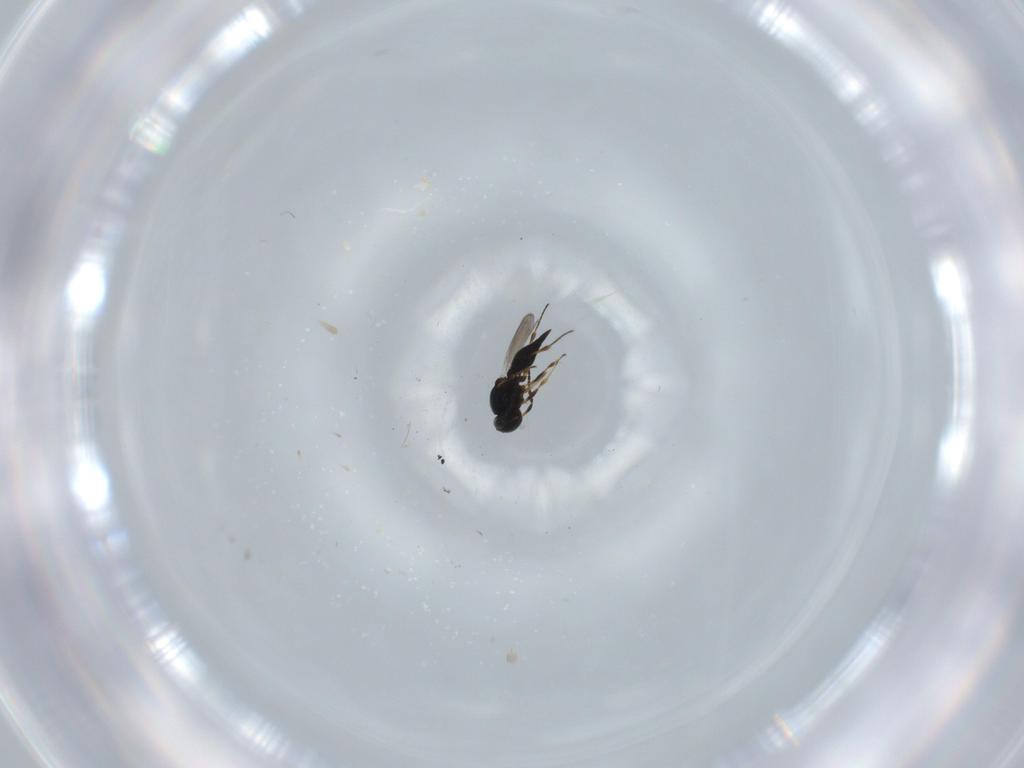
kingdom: Animalia
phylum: Arthropoda
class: Insecta
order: Hymenoptera
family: Platygastridae
